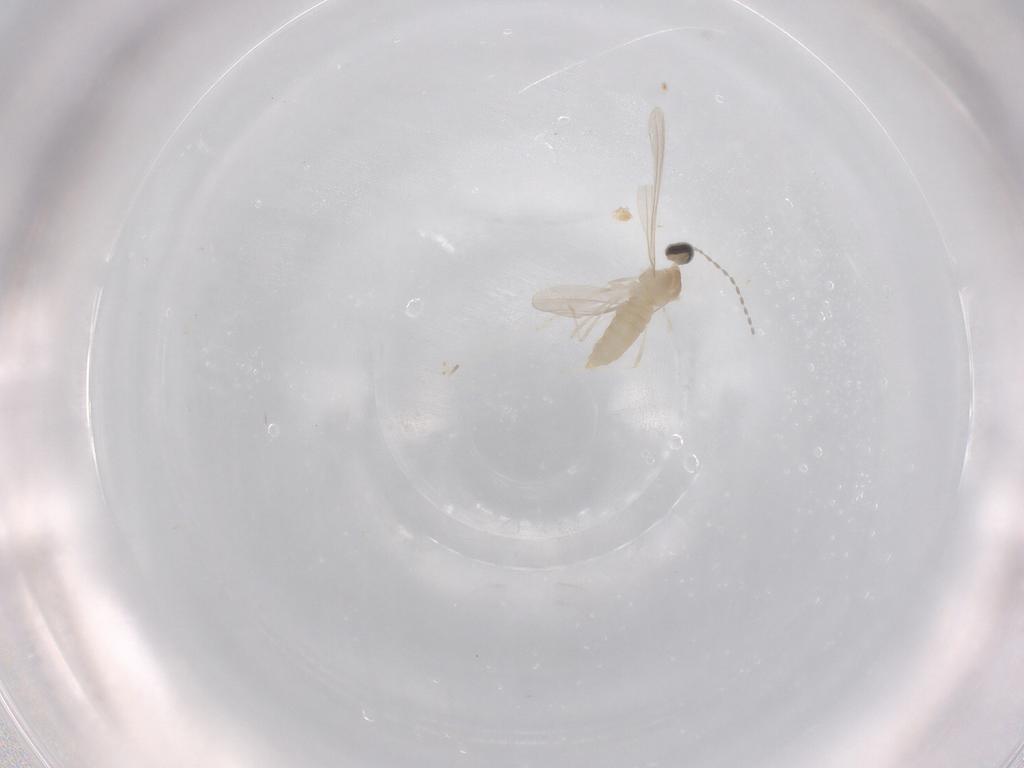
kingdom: Animalia
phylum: Arthropoda
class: Insecta
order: Diptera
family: Cecidomyiidae
